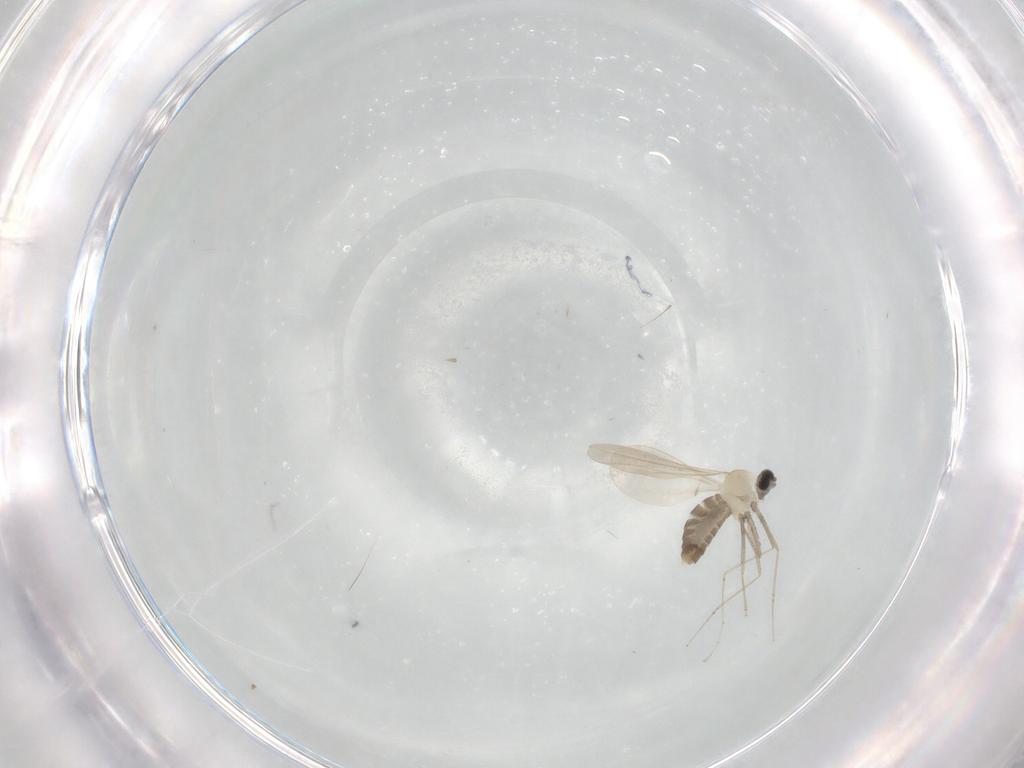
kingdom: Animalia
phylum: Arthropoda
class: Insecta
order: Diptera
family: Cecidomyiidae
